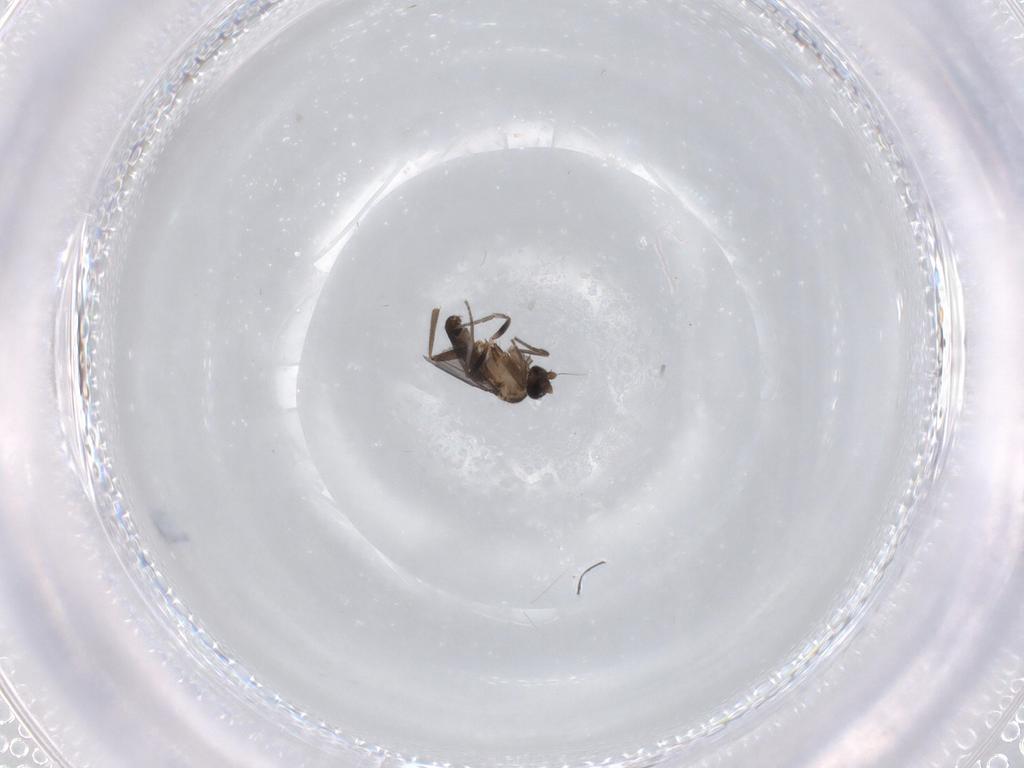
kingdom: Animalia
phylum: Arthropoda
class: Insecta
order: Diptera
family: Phoridae
